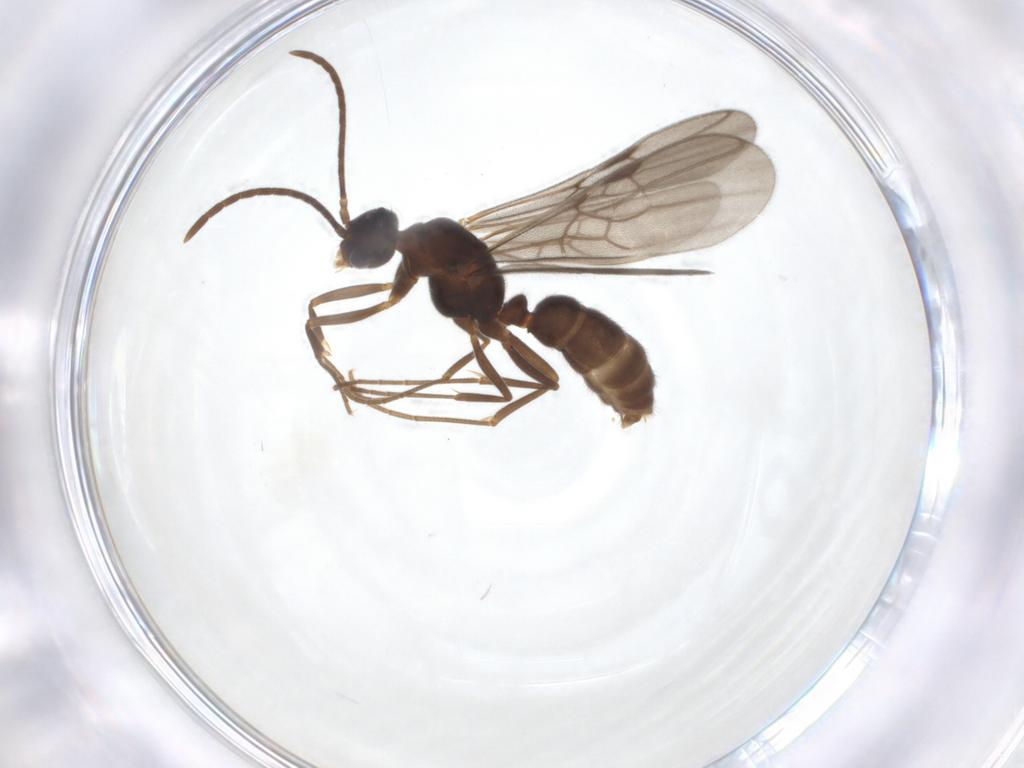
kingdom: Animalia
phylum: Arthropoda
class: Insecta
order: Hymenoptera
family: Formicidae
